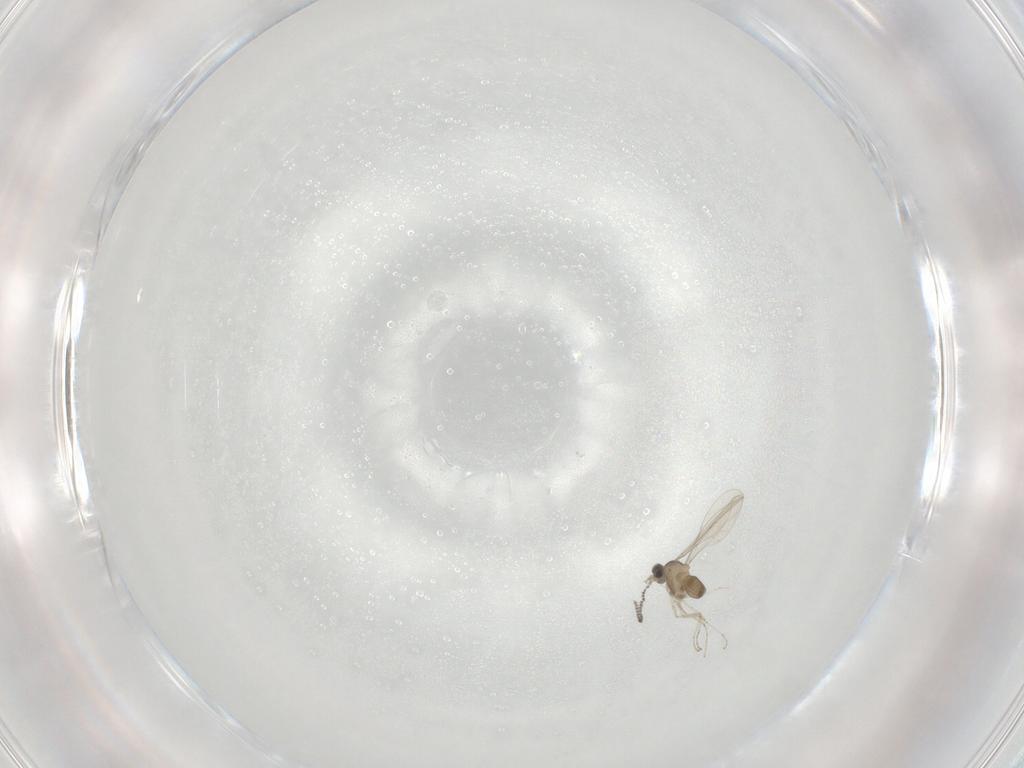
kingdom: Animalia
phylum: Arthropoda
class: Insecta
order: Diptera
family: Cecidomyiidae
